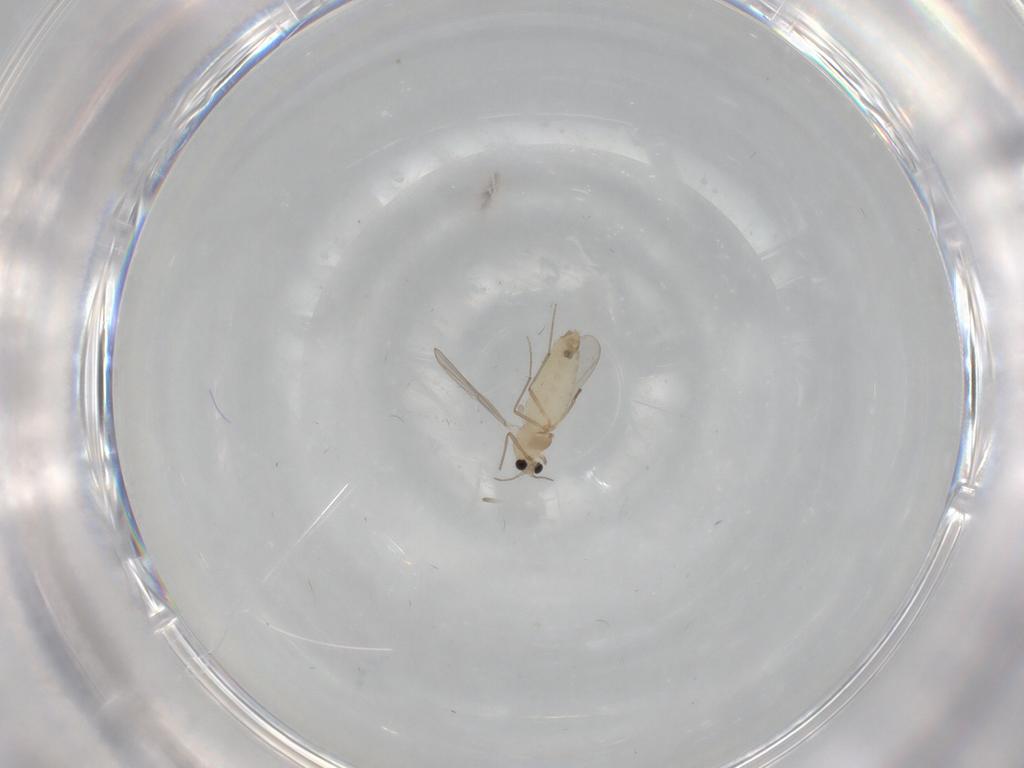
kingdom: Animalia
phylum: Arthropoda
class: Insecta
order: Diptera
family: Chironomidae
